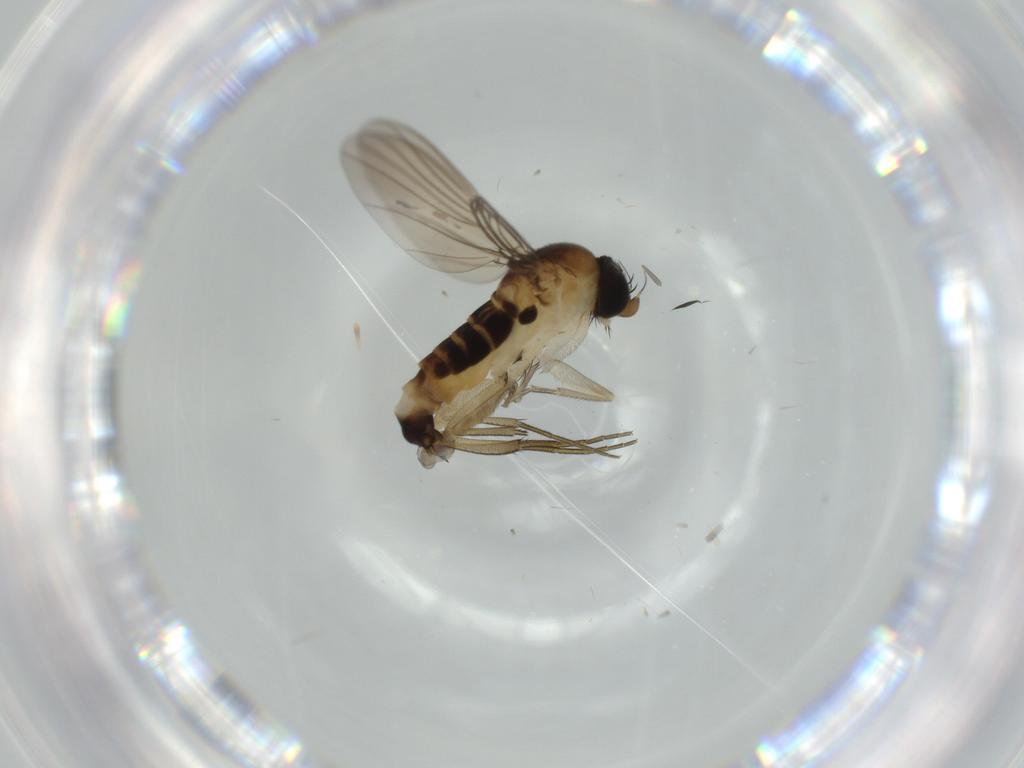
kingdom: Animalia
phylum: Arthropoda
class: Insecta
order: Diptera
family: Phoridae
